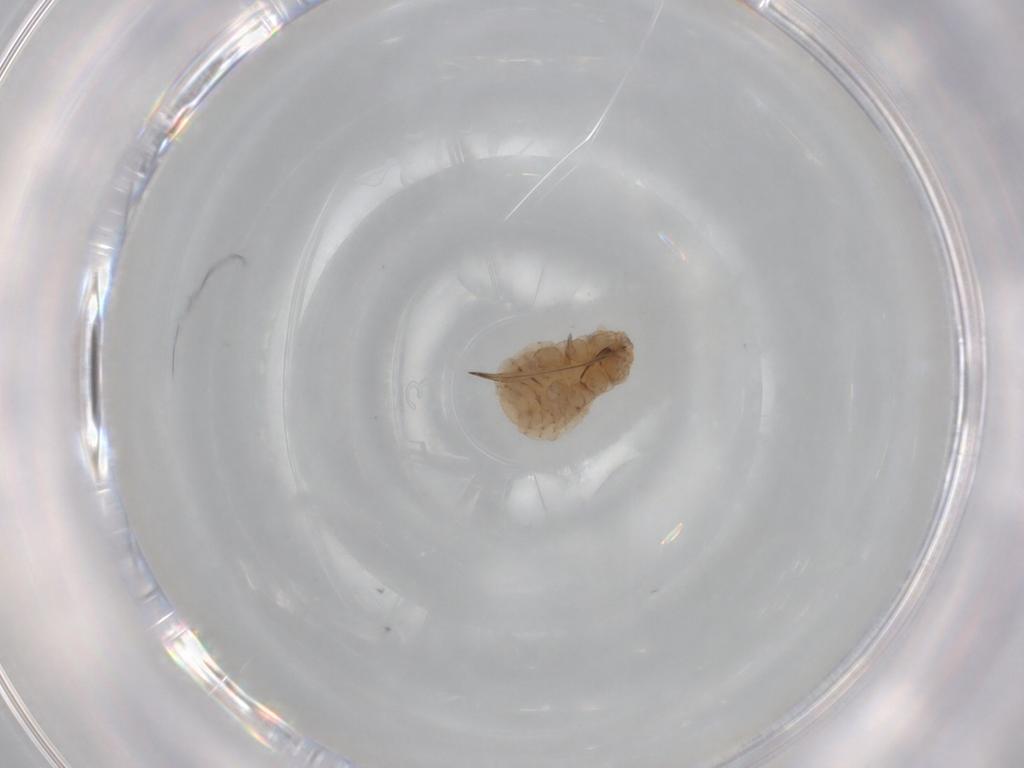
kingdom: Animalia
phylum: Arthropoda
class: Insecta
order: Hemiptera
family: Aphididae
